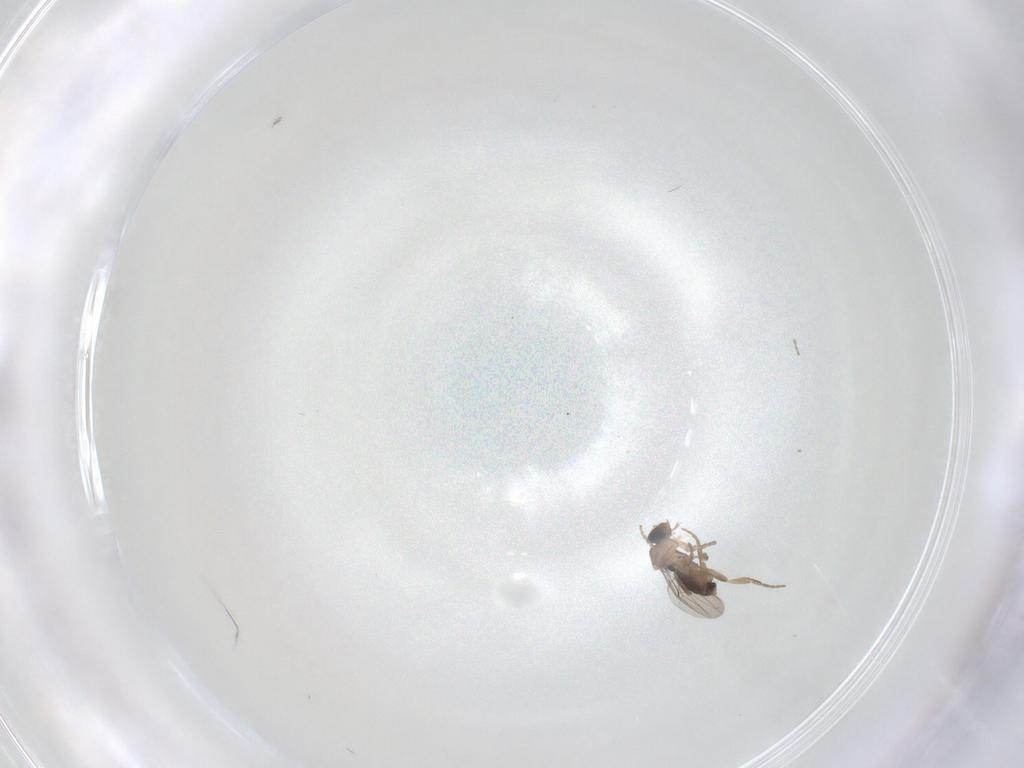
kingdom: Animalia
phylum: Arthropoda
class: Insecta
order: Diptera
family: Phoridae
